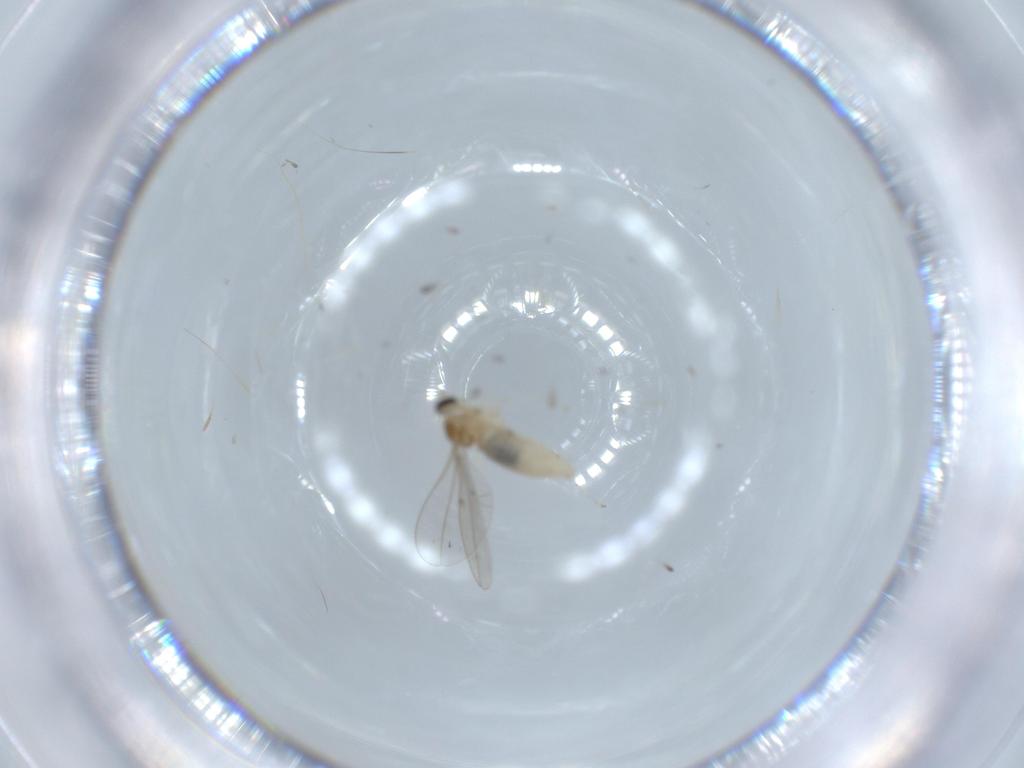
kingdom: Animalia
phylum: Arthropoda
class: Insecta
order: Diptera
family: Cecidomyiidae
